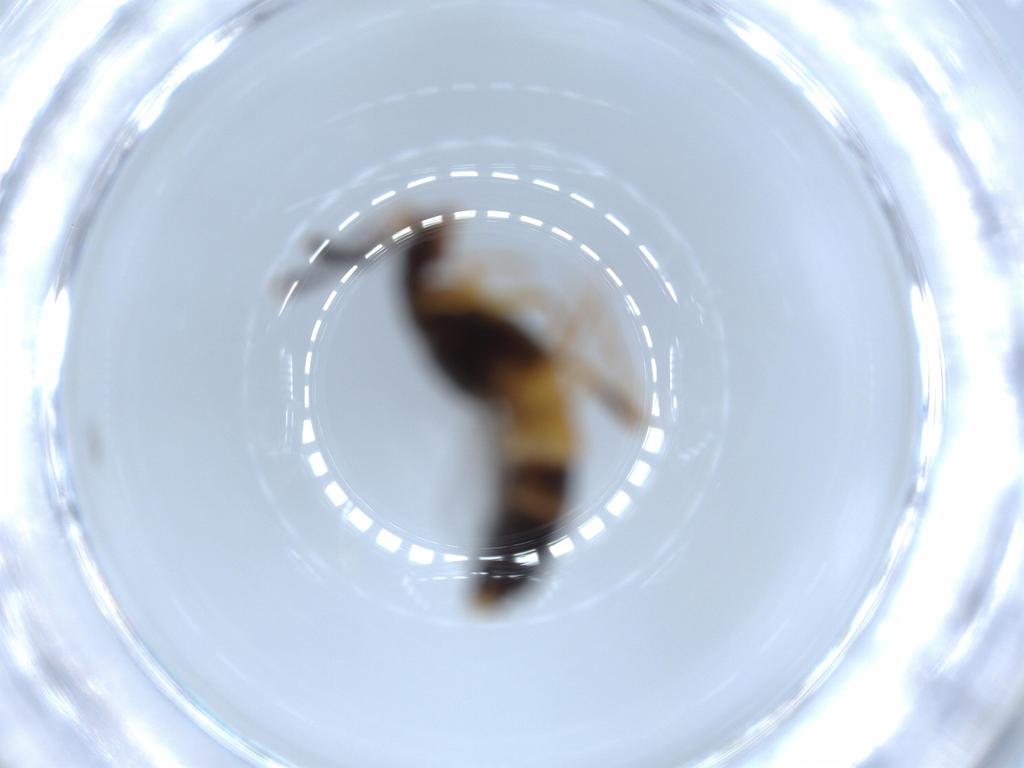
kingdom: Animalia
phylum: Arthropoda
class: Insecta
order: Coleoptera
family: Staphylinidae
